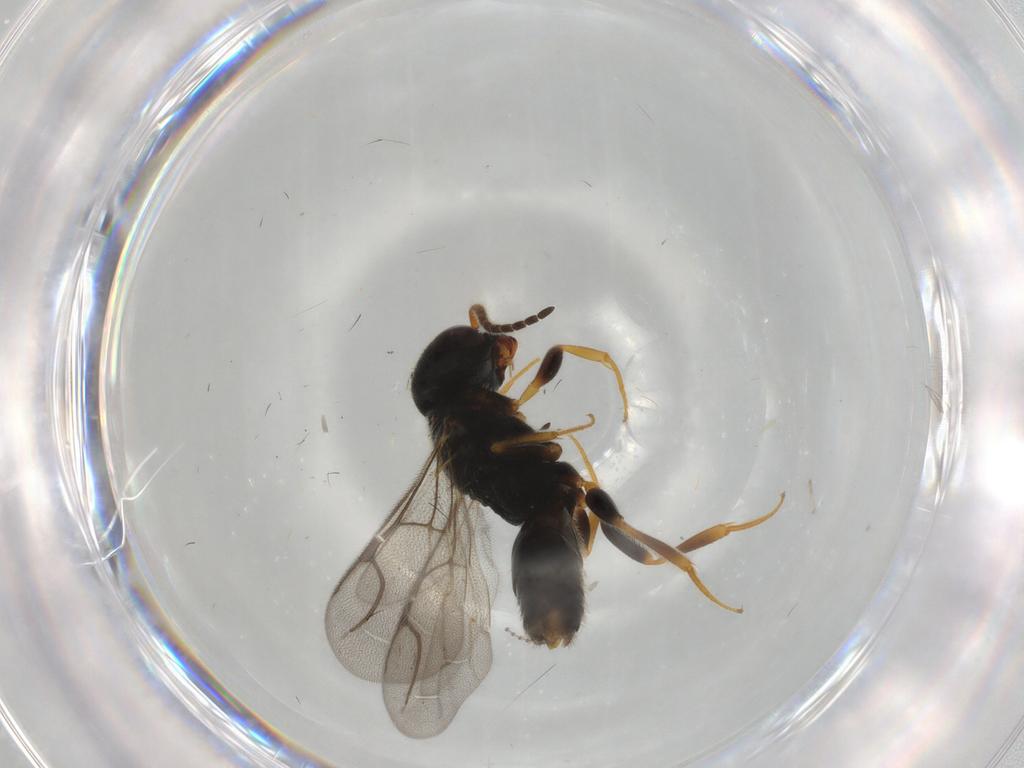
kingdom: Animalia
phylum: Arthropoda
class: Insecta
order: Hymenoptera
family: Bethylidae
